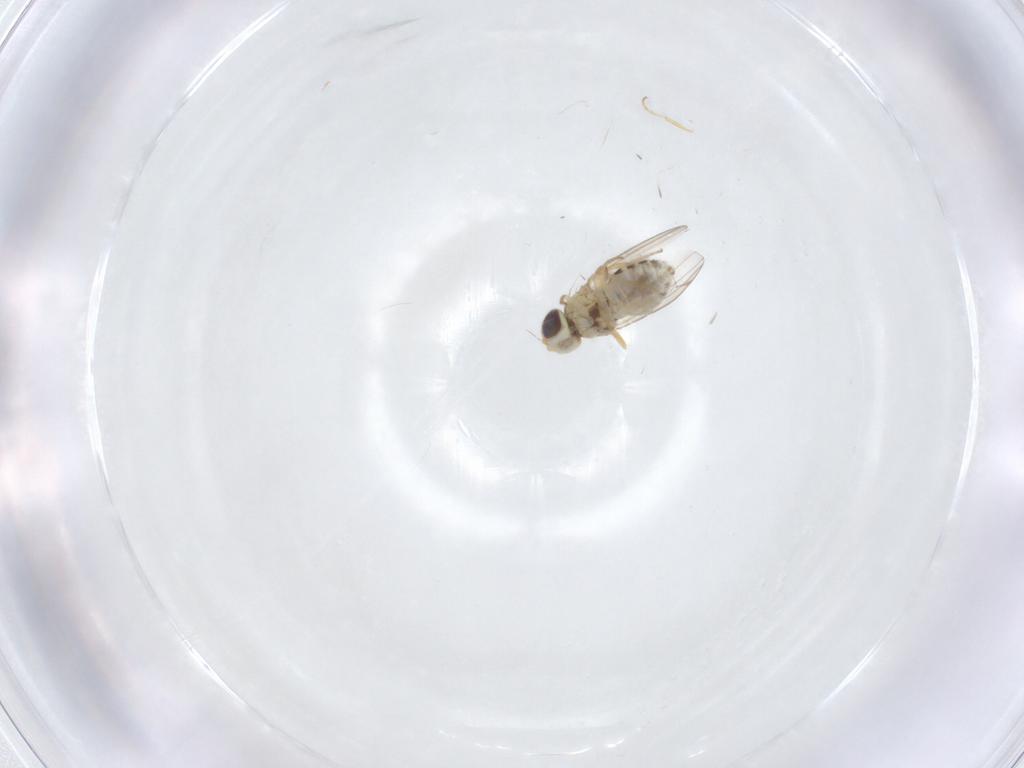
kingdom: Animalia
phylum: Arthropoda
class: Insecta
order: Diptera
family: Chyromyidae
